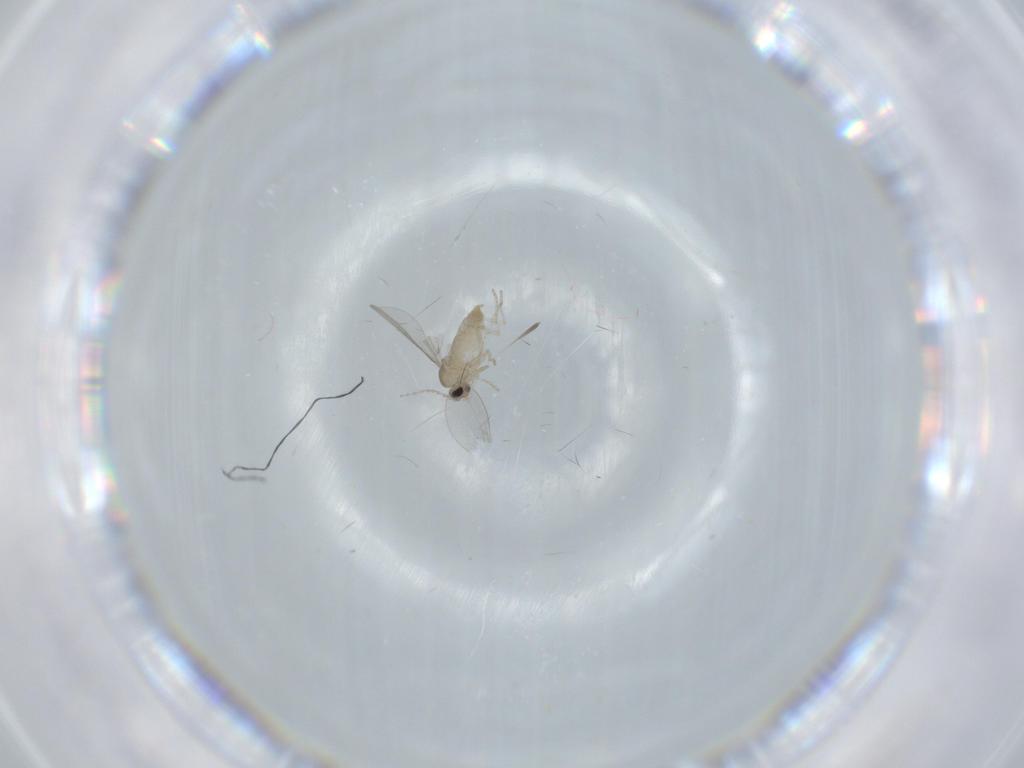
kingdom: Animalia
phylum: Arthropoda
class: Insecta
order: Diptera
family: Cecidomyiidae
